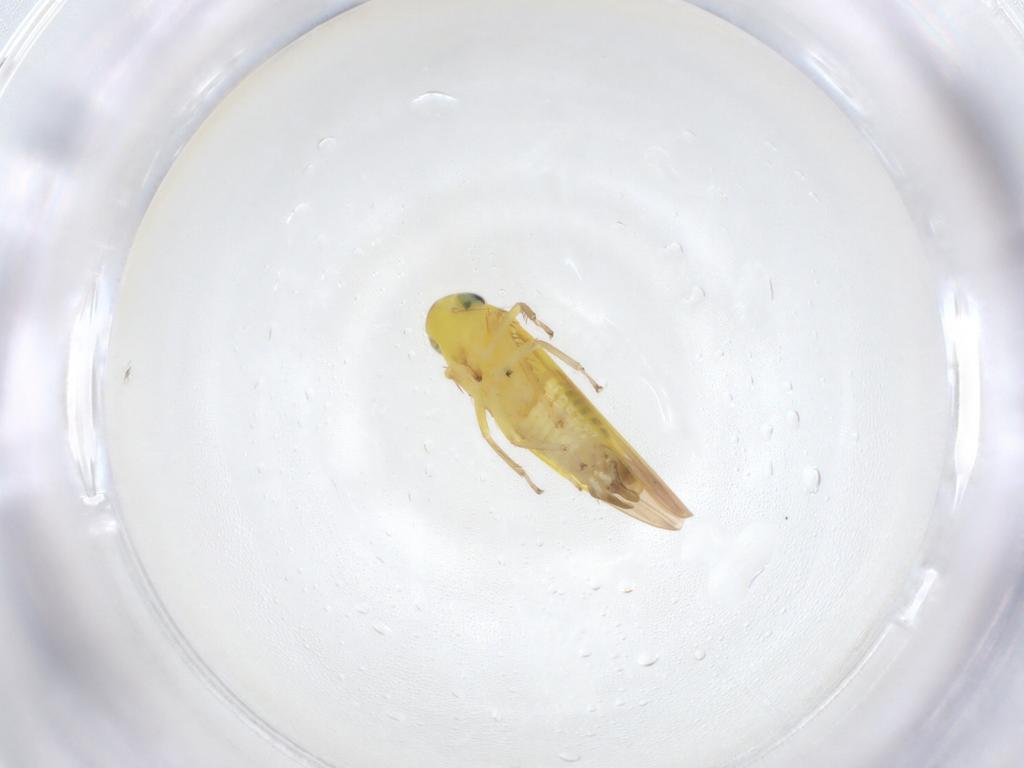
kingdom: Animalia
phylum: Arthropoda
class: Insecta
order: Hemiptera
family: Cicadellidae
